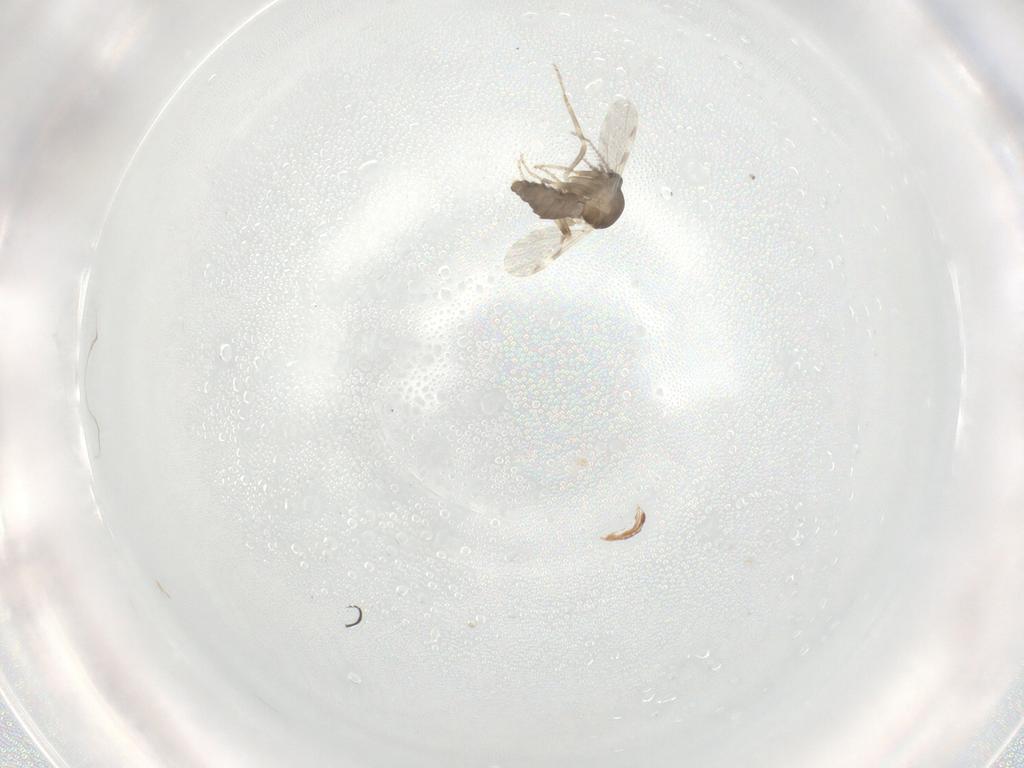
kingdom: Animalia
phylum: Arthropoda
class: Insecta
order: Diptera
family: Ceratopogonidae
